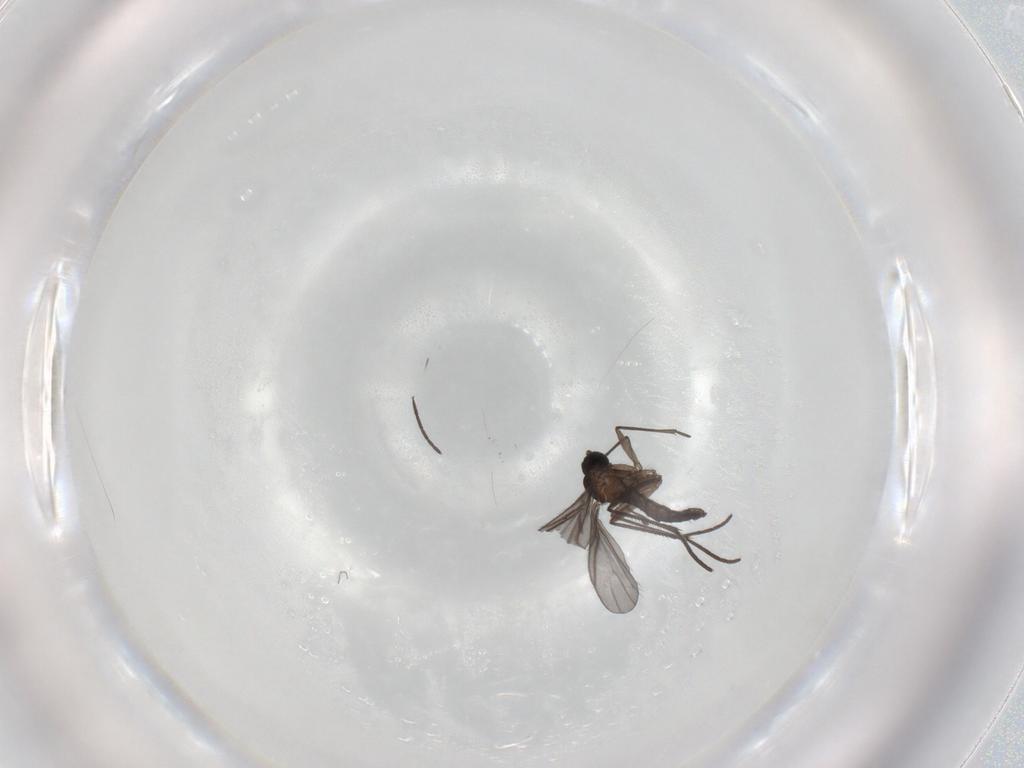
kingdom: Animalia
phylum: Arthropoda
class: Insecta
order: Diptera
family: Sciaridae
